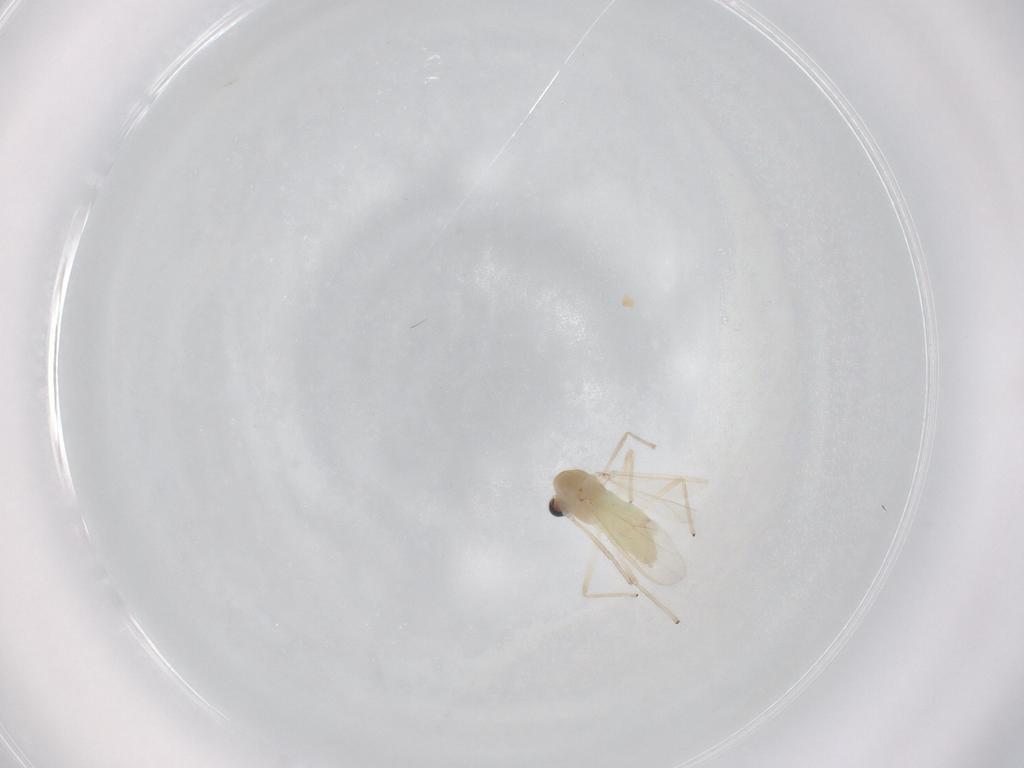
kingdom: Animalia
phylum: Arthropoda
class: Insecta
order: Diptera
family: Chironomidae
